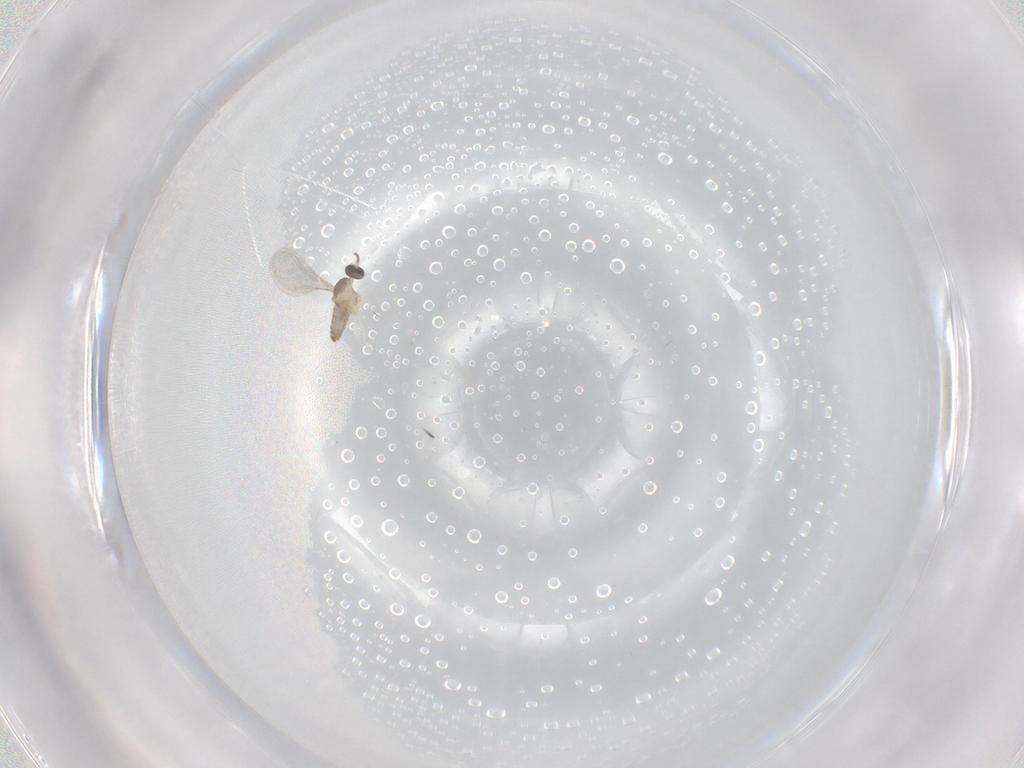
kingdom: Animalia
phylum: Arthropoda
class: Insecta
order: Diptera
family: Cecidomyiidae
